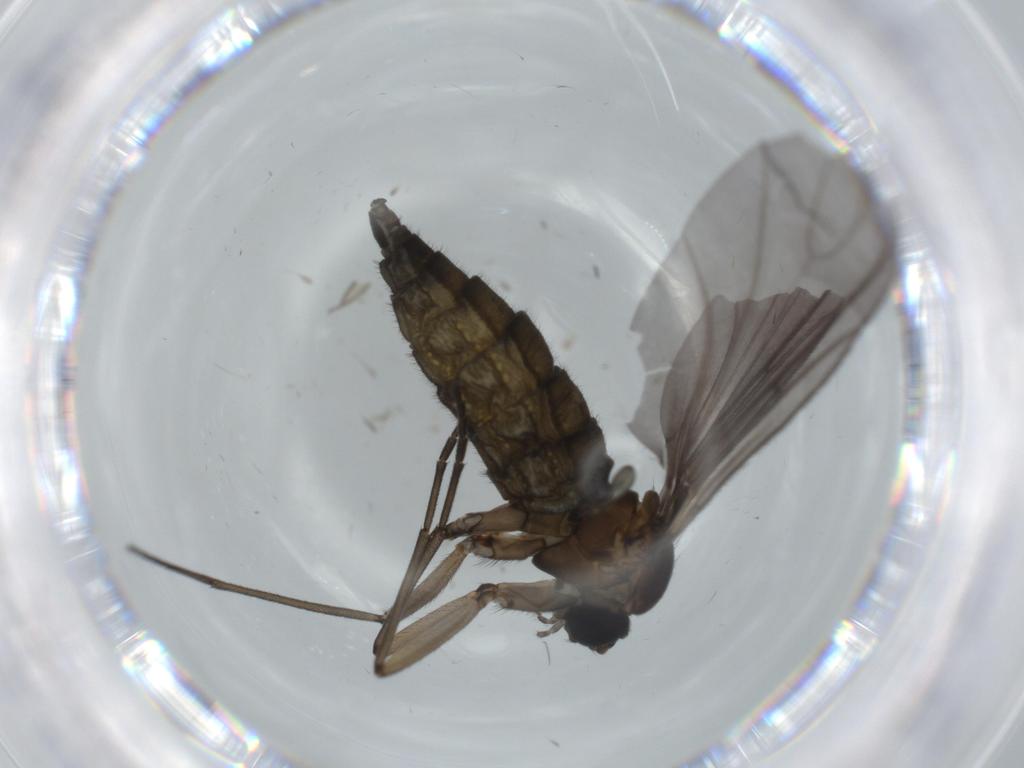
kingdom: Animalia
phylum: Arthropoda
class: Insecta
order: Diptera
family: Sciaridae
